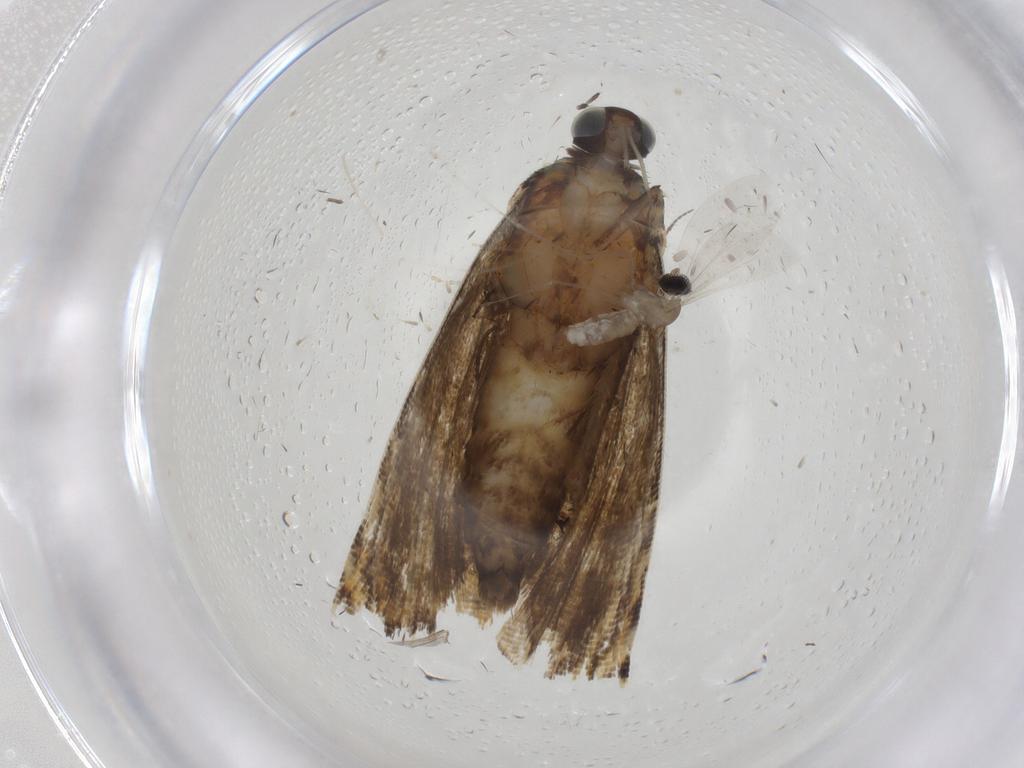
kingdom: Animalia
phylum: Arthropoda
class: Insecta
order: Lepidoptera
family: Tortricidae
